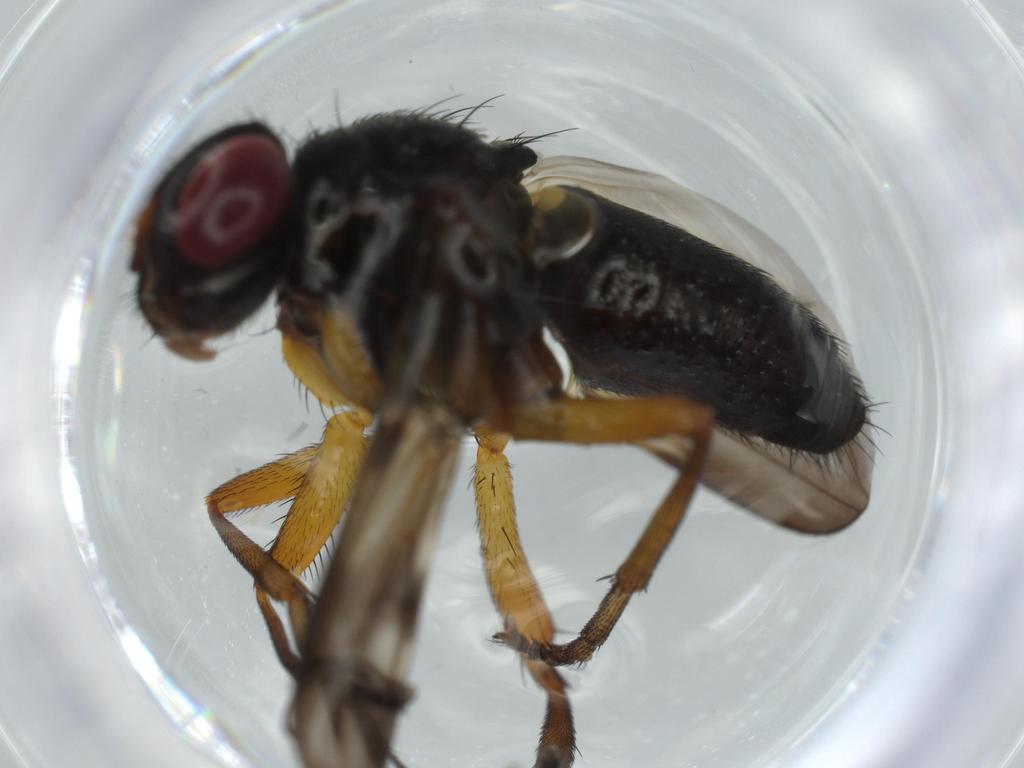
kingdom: Animalia
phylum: Arthropoda
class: Insecta
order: Diptera
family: Calliphoridae
